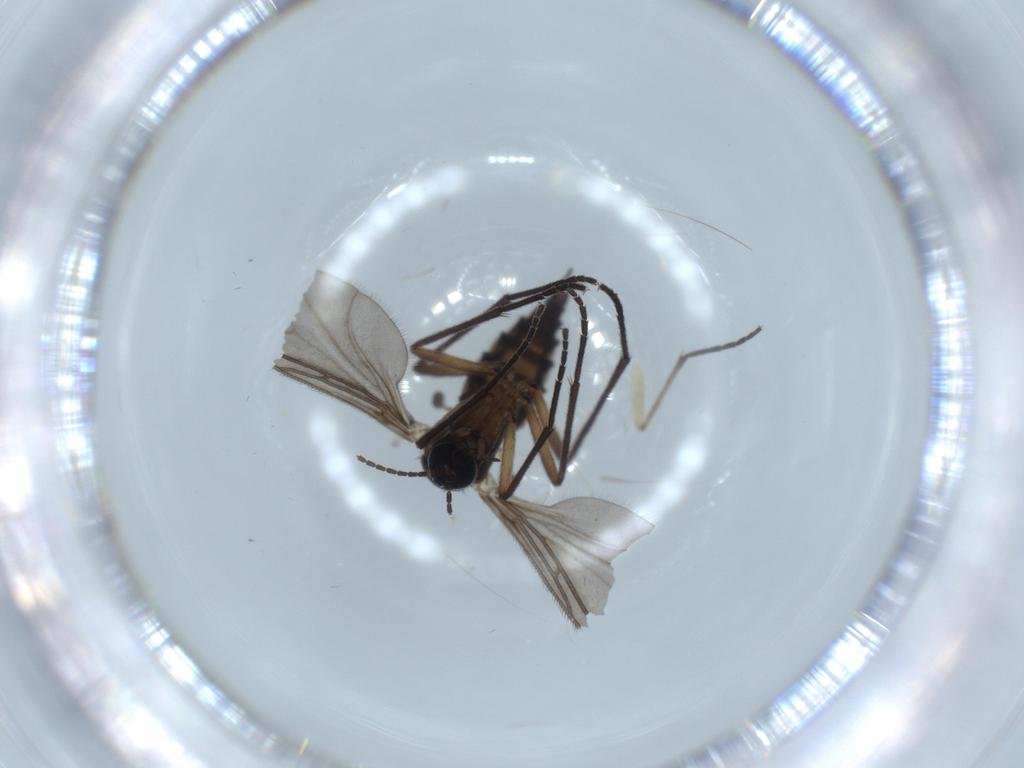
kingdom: Animalia
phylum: Arthropoda
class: Insecta
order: Diptera
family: Sciaridae
